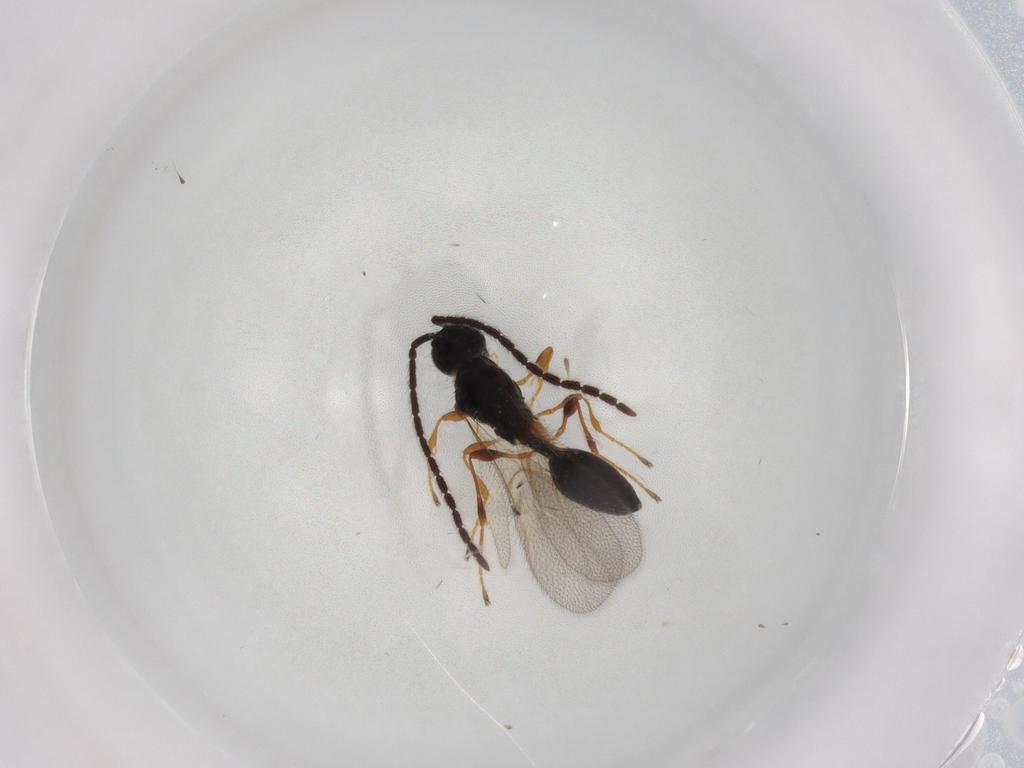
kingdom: Animalia
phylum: Arthropoda
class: Insecta
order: Hymenoptera
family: Diapriidae
